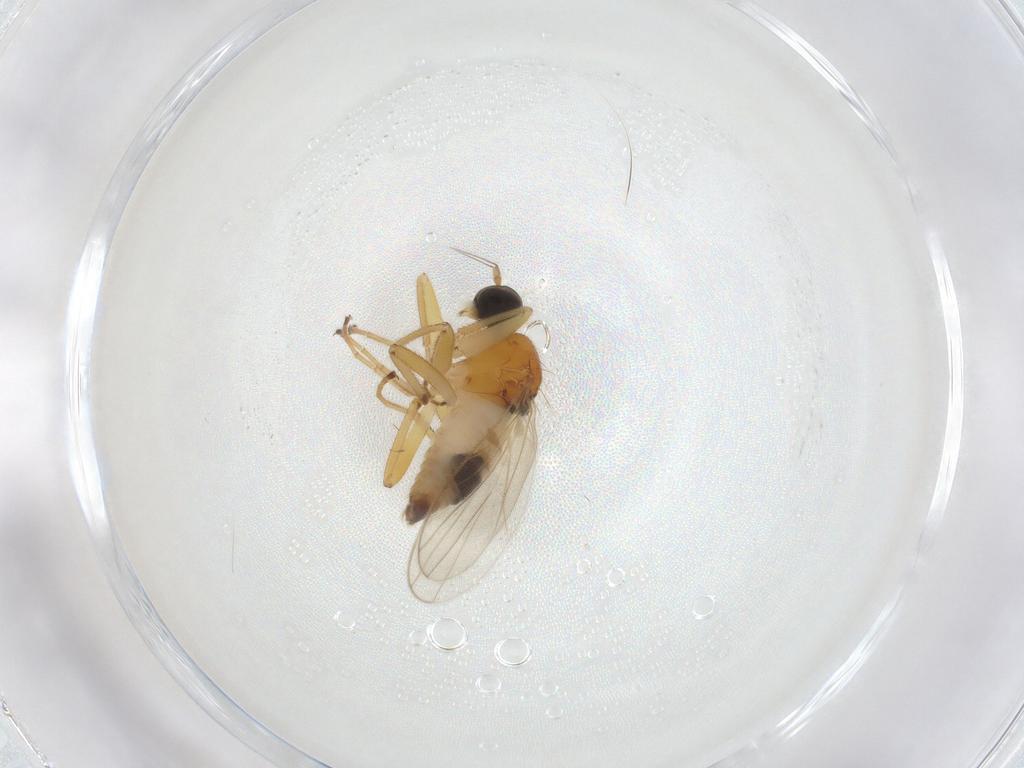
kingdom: Animalia
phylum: Arthropoda
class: Insecta
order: Diptera
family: Hybotidae
